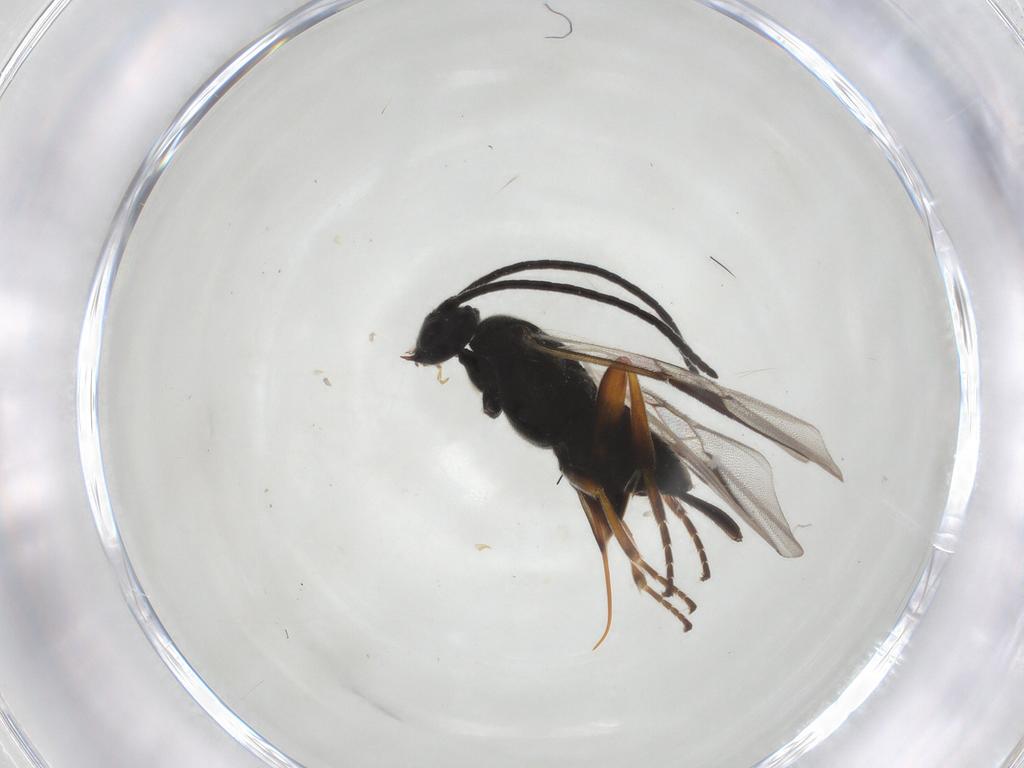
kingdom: Animalia
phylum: Arthropoda
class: Insecta
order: Hymenoptera
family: Braconidae
